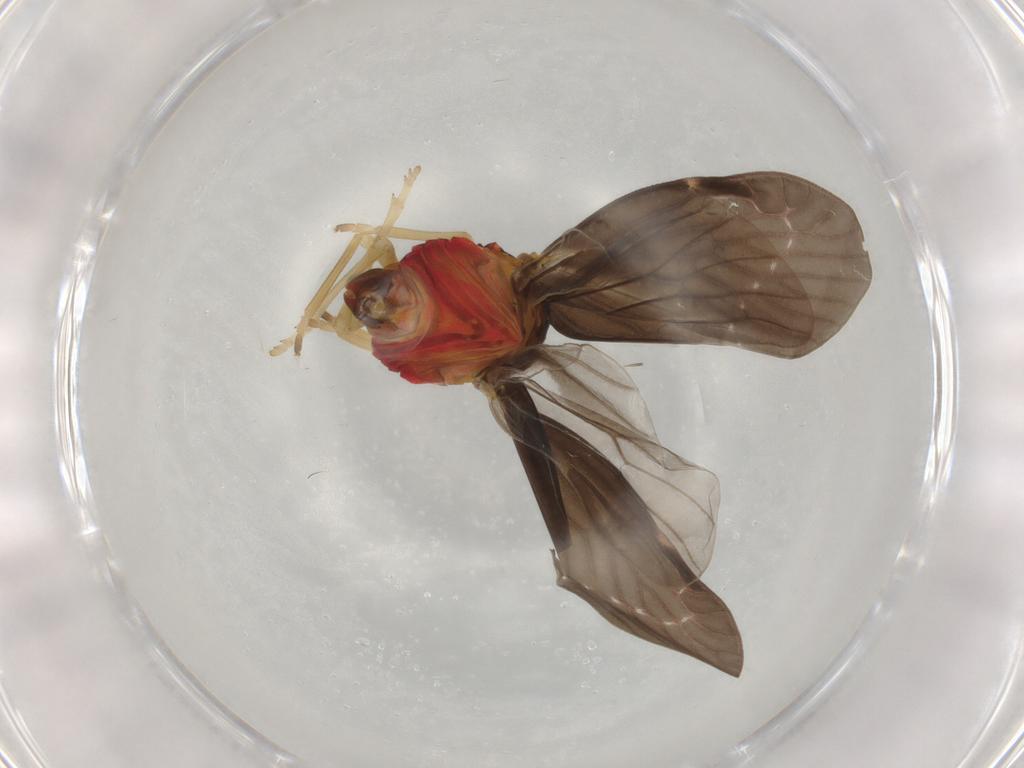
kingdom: Animalia
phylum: Arthropoda
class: Insecta
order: Hemiptera
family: Derbidae
